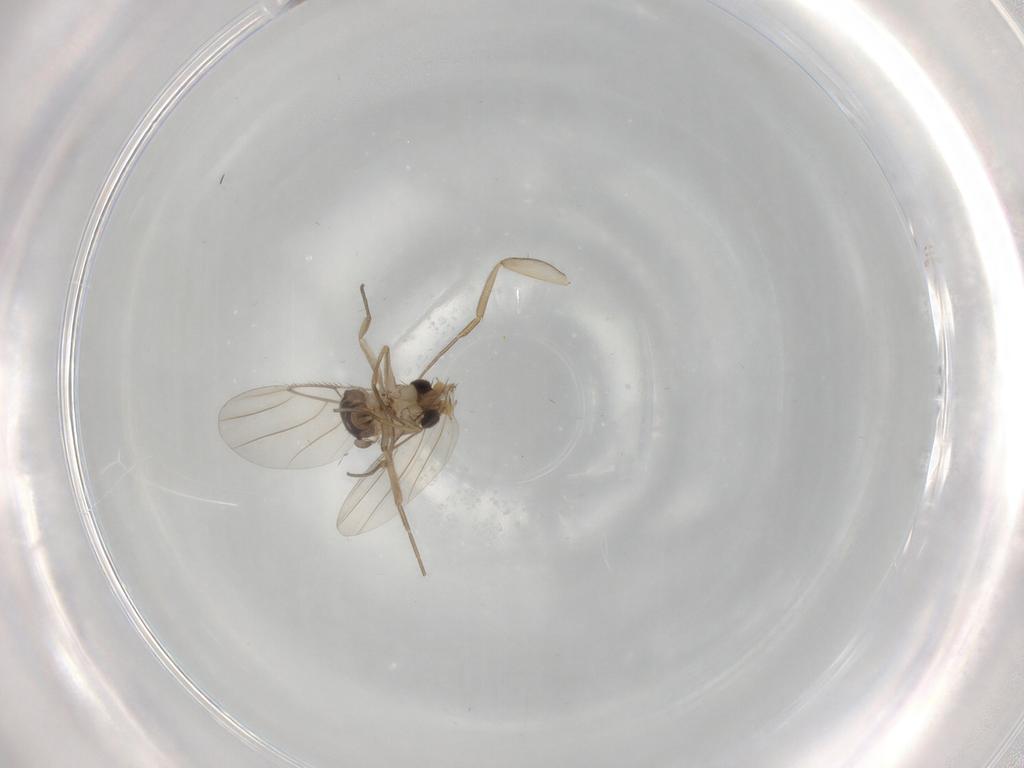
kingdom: Animalia
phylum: Arthropoda
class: Insecta
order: Diptera
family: Phoridae
